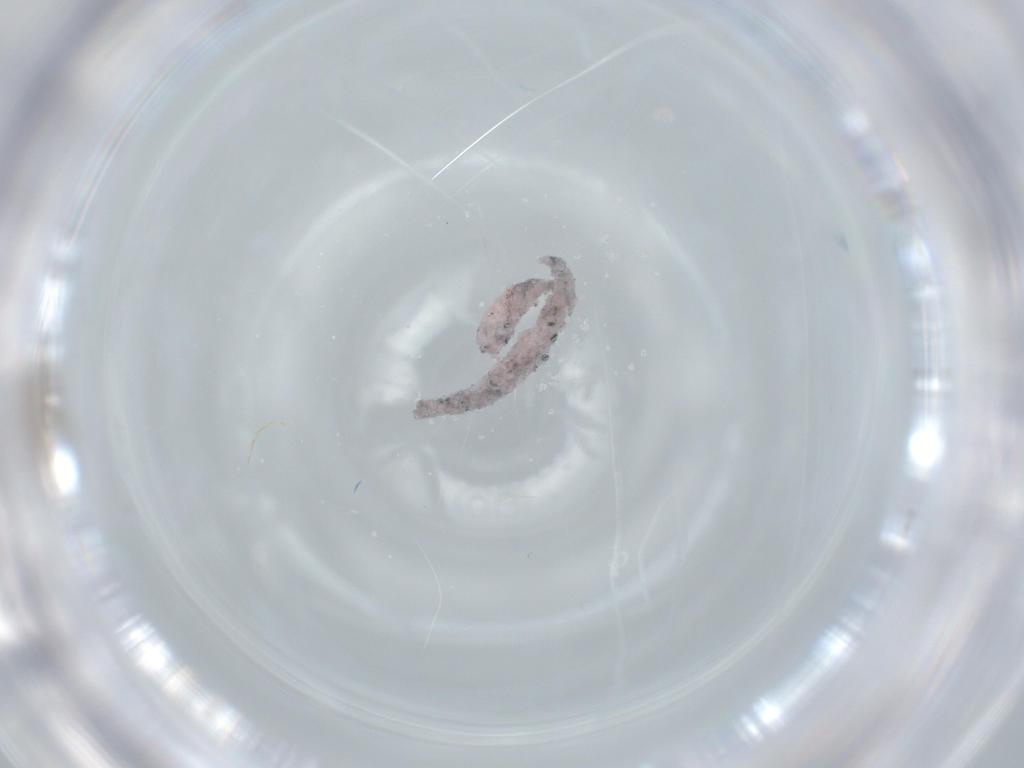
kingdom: Animalia
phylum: Arthropoda
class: Insecta
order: Diptera
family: Chironomidae
